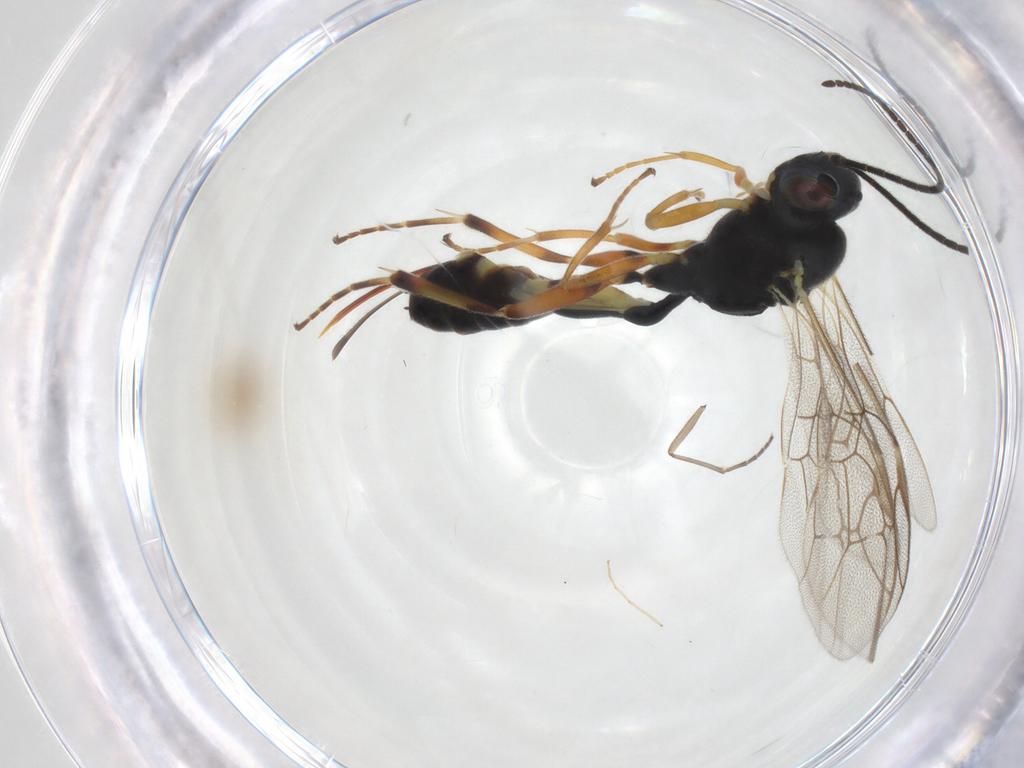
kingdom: Animalia
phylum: Arthropoda
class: Insecta
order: Hymenoptera
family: Ichneumonidae
